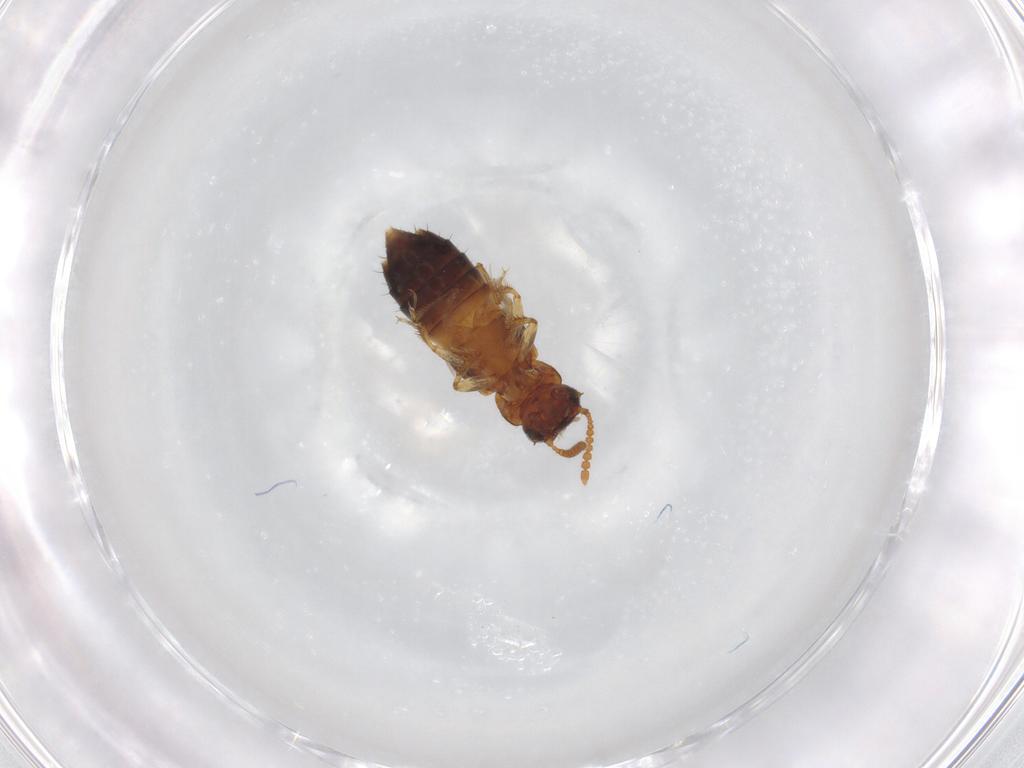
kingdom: Animalia
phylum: Arthropoda
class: Insecta
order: Coleoptera
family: Staphylinidae
